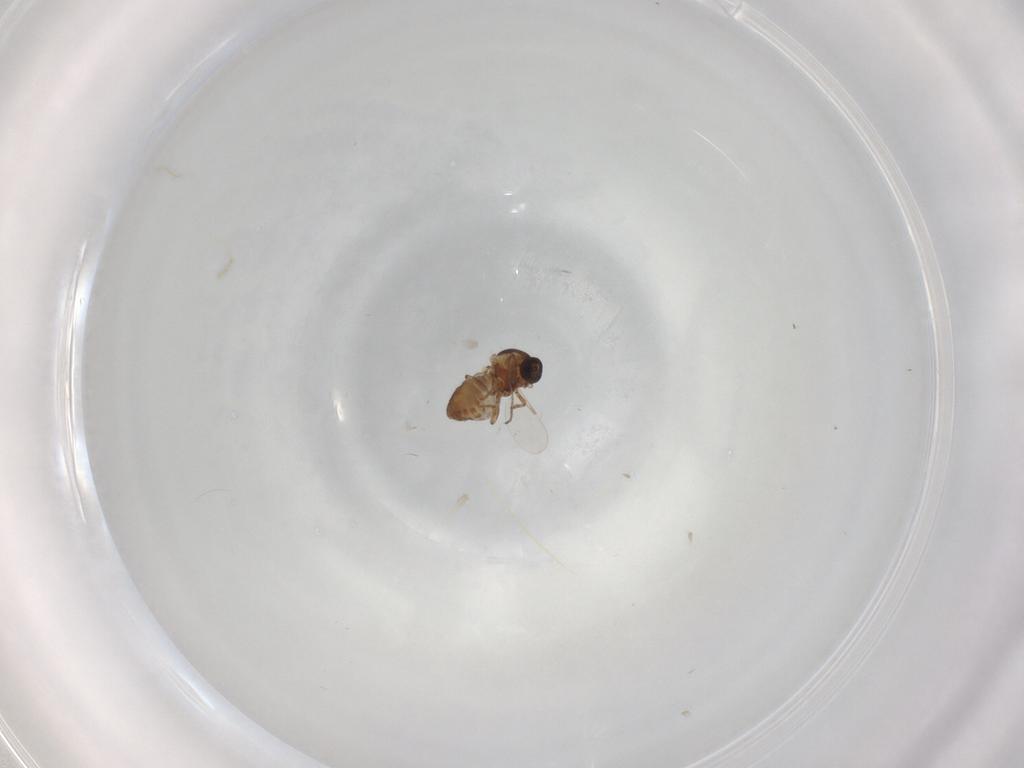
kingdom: Animalia
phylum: Arthropoda
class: Insecta
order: Diptera
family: Ceratopogonidae
